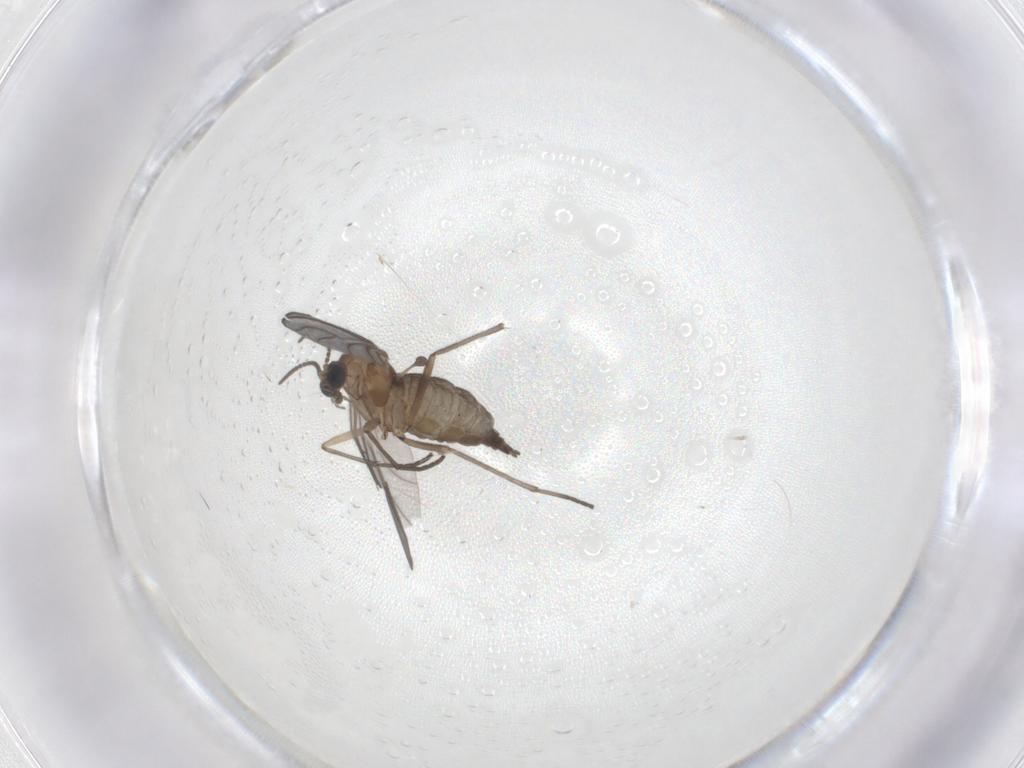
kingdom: Animalia
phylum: Arthropoda
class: Insecta
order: Diptera
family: Sciaridae
